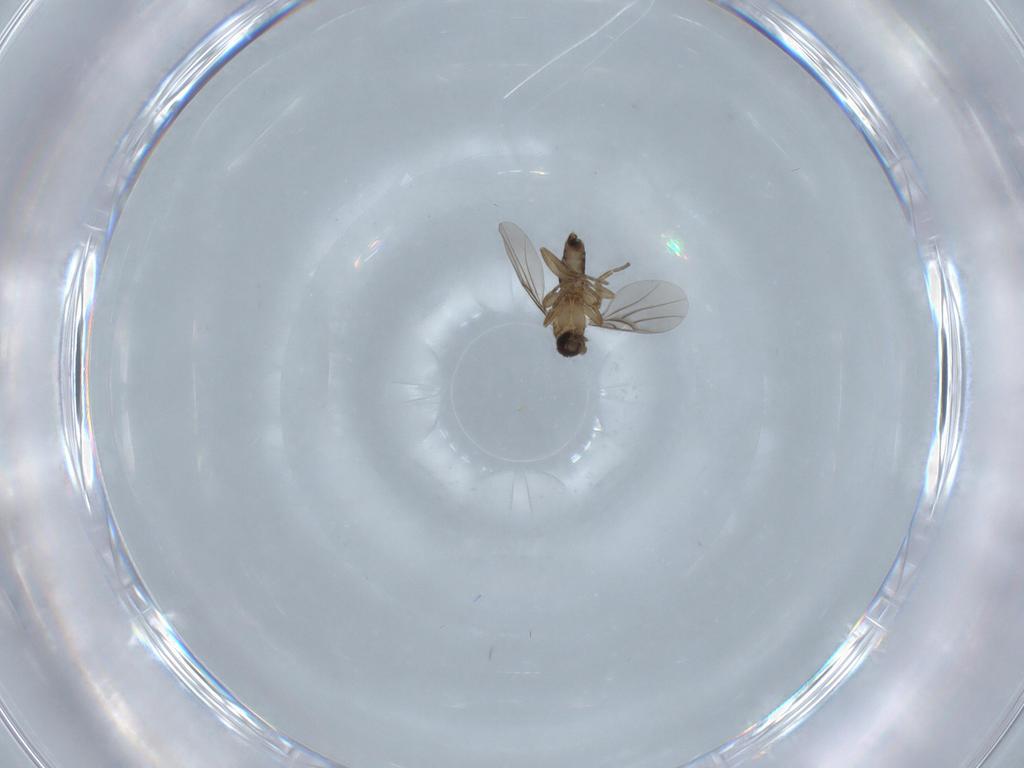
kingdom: Animalia
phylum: Arthropoda
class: Insecta
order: Diptera
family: Phoridae
